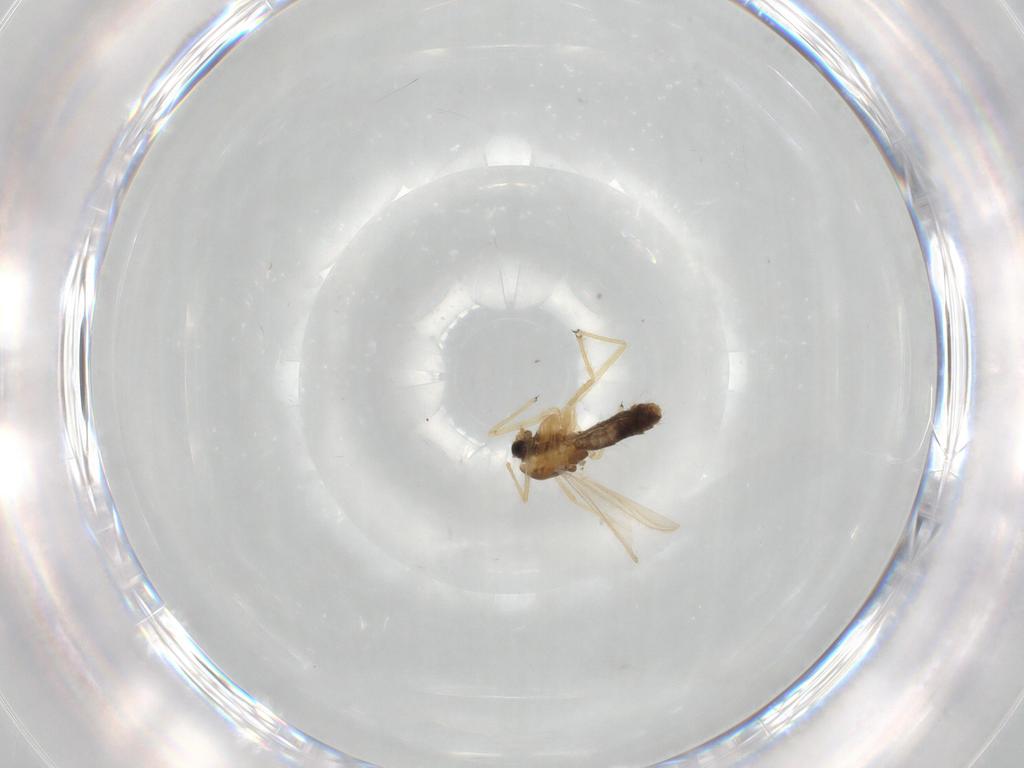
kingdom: Animalia
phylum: Arthropoda
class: Insecta
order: Diptera
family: Chironomidae
